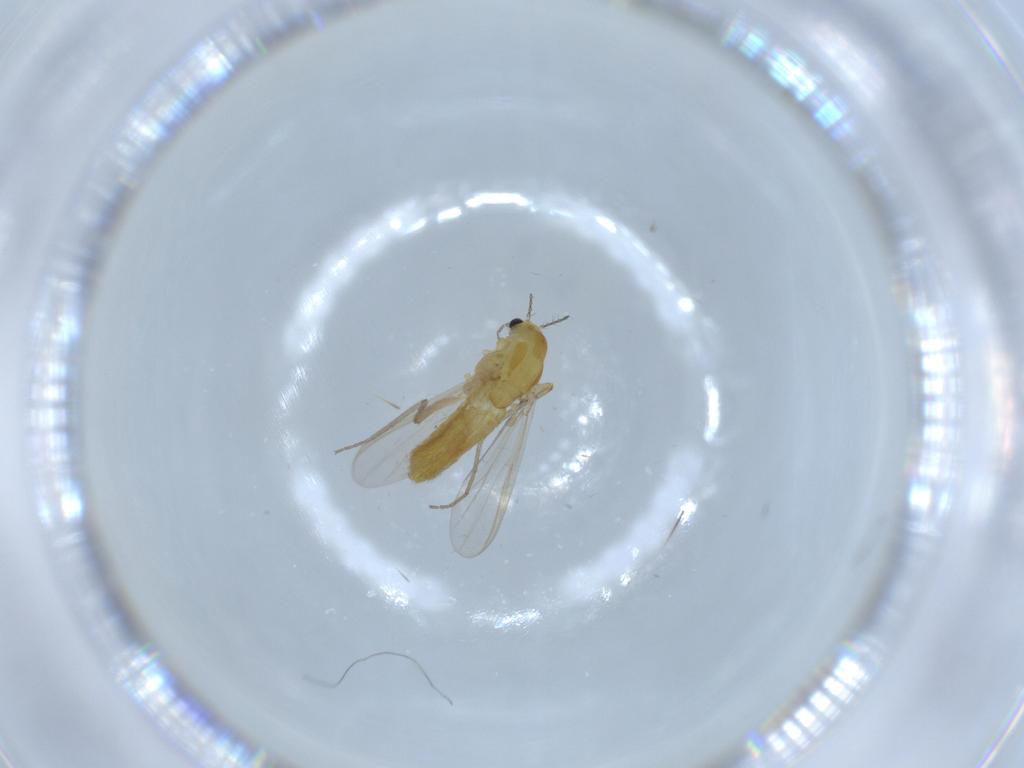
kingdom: Animalia
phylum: Arthropoda
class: Insecta
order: Diptera
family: Chironomidae
